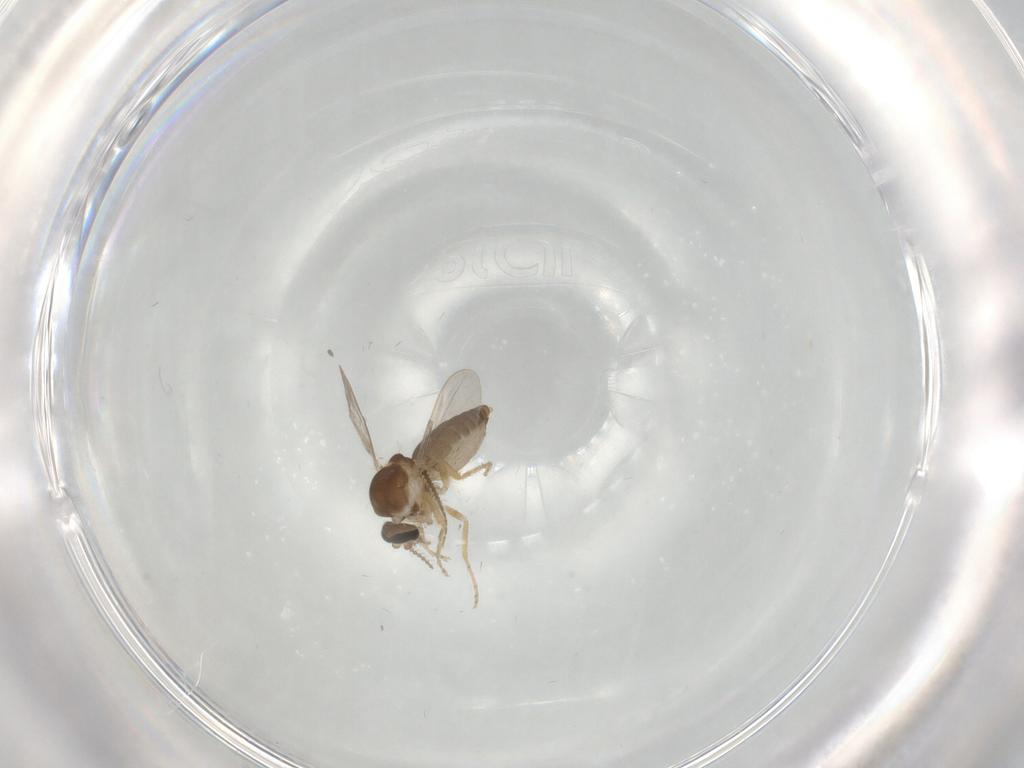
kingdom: Animalia
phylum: Arthropoda
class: Insecta
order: Diptera
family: Ceratopogonidae
